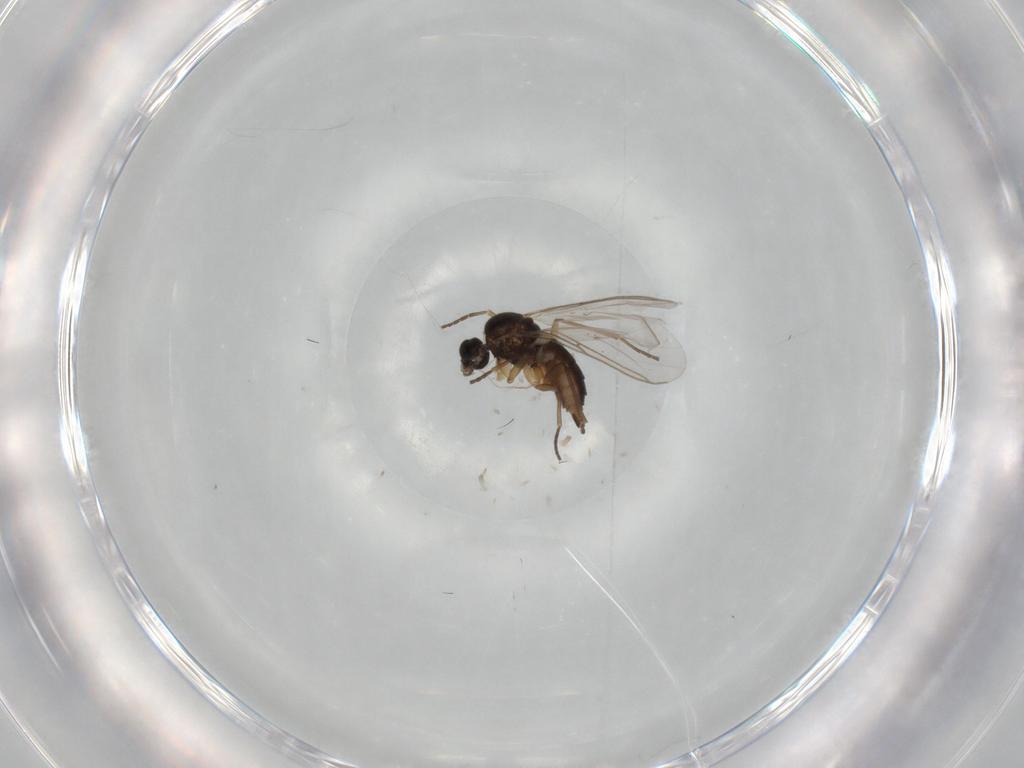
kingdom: Animalia
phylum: Arthropoda
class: Insecta
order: Diptera
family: Sciaridae
